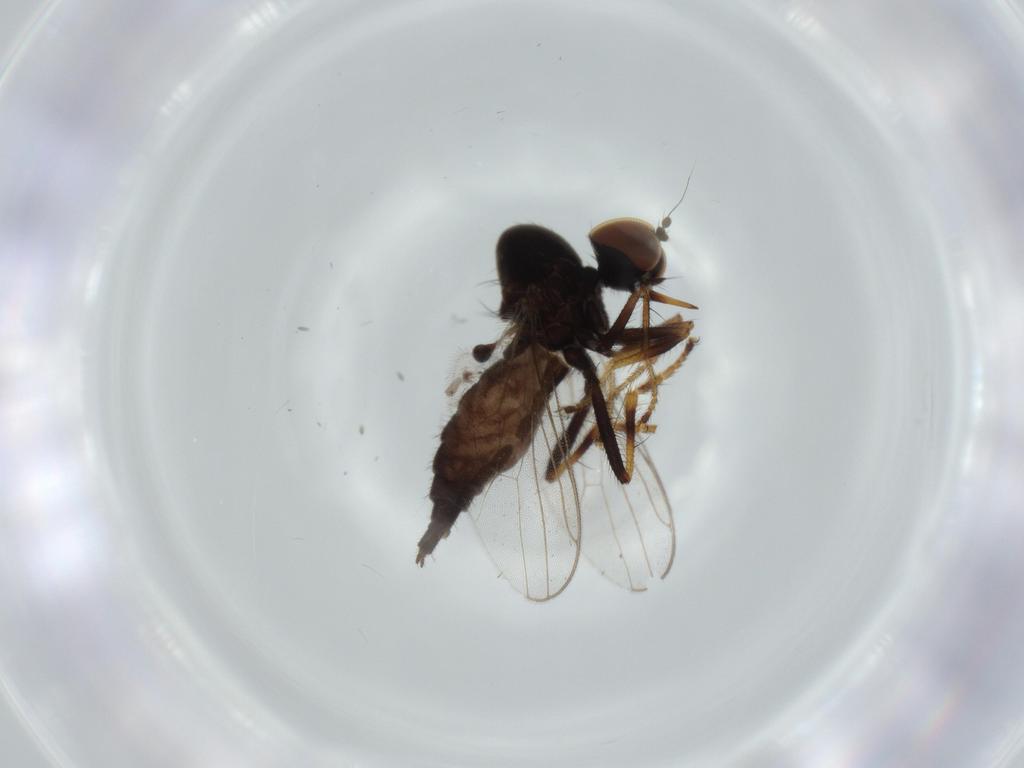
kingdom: Animalia
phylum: Arthropoda
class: Insecta
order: Diptera
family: Hybotidae
